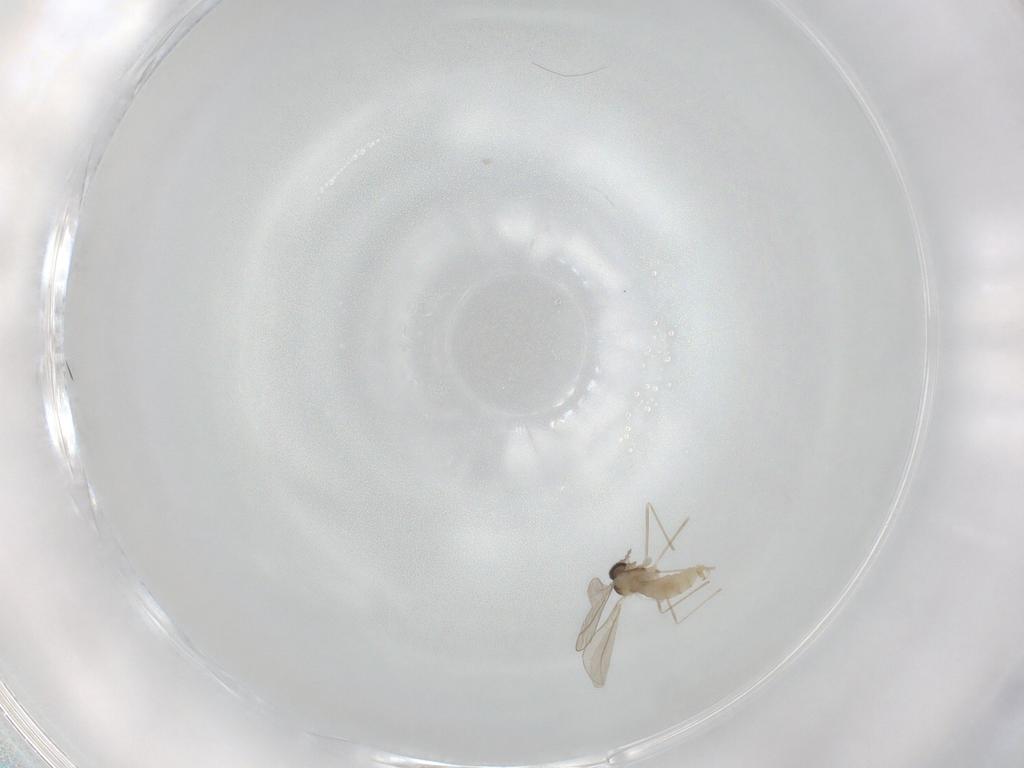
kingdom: Animalia
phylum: Arthropoda
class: Insecta
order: Diptera
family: Cecidomyiidae
